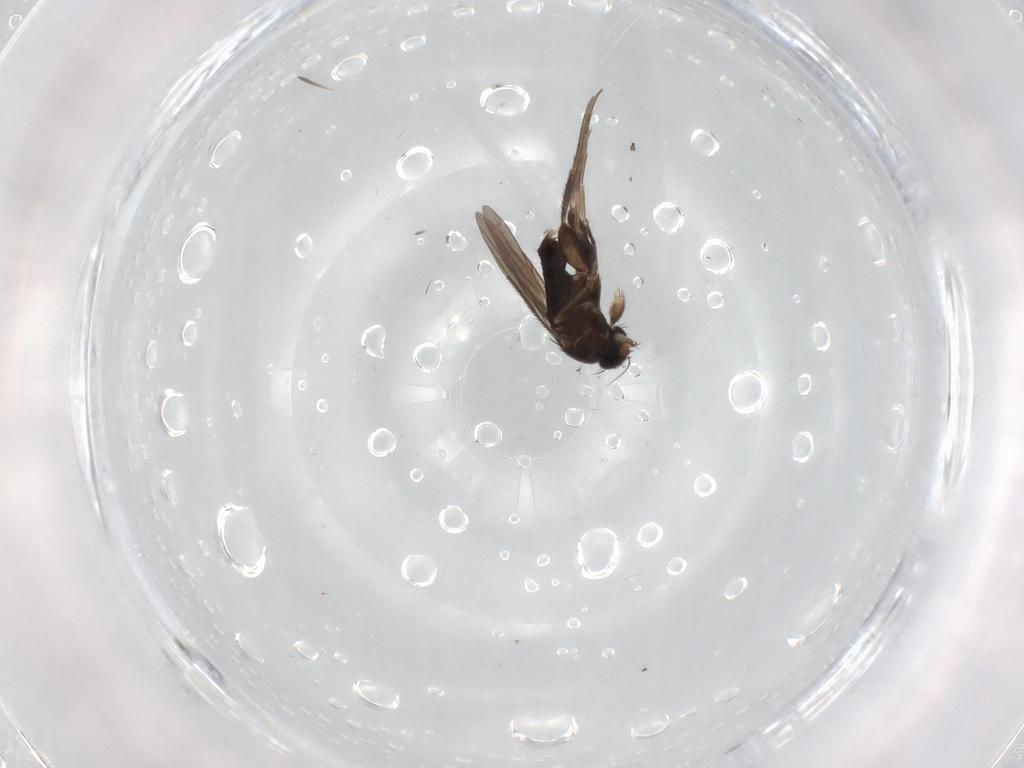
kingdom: Animalia
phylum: Arthropoda
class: Insecta
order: Diptera
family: Phoridae
